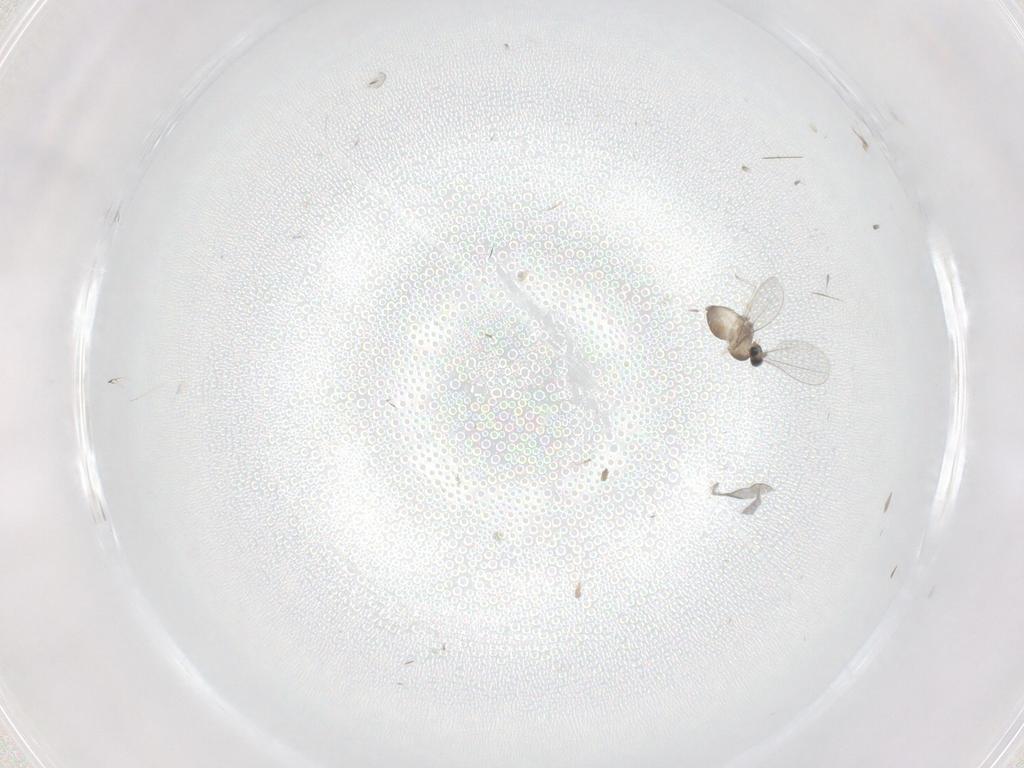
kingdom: Animalia
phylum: Arthropoda
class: Insecta
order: Diptera
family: Cecidomyiidae
